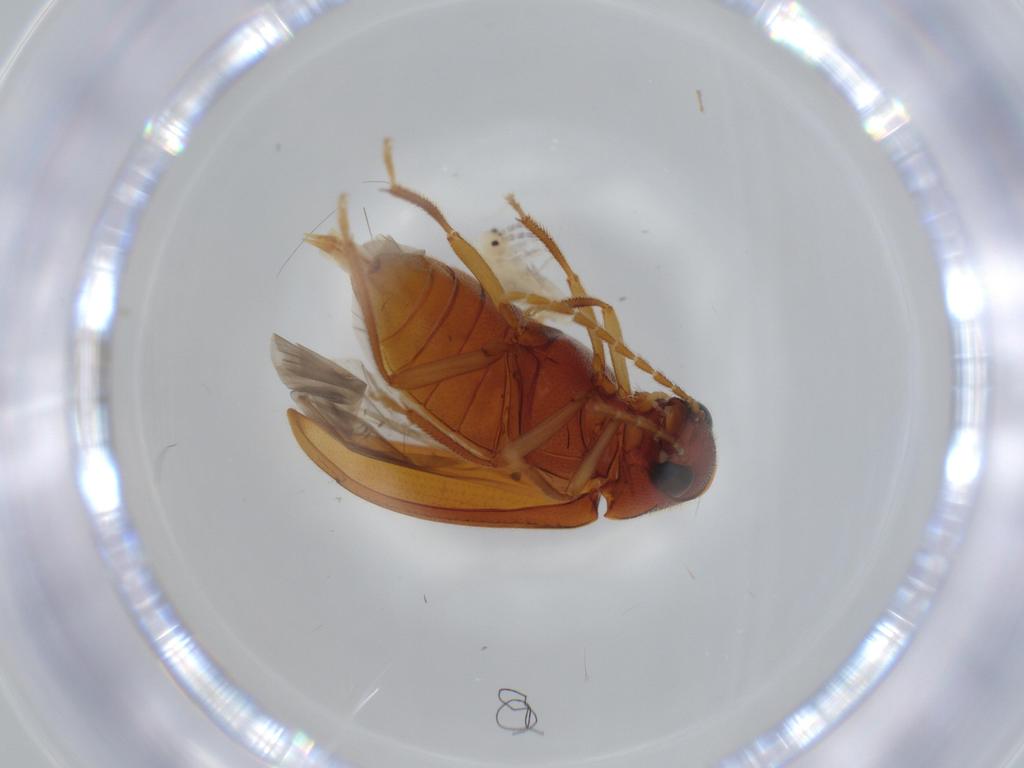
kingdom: Animalia
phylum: Arthropoda
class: Insecta
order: Coleoptera
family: Ptilodactylidae
